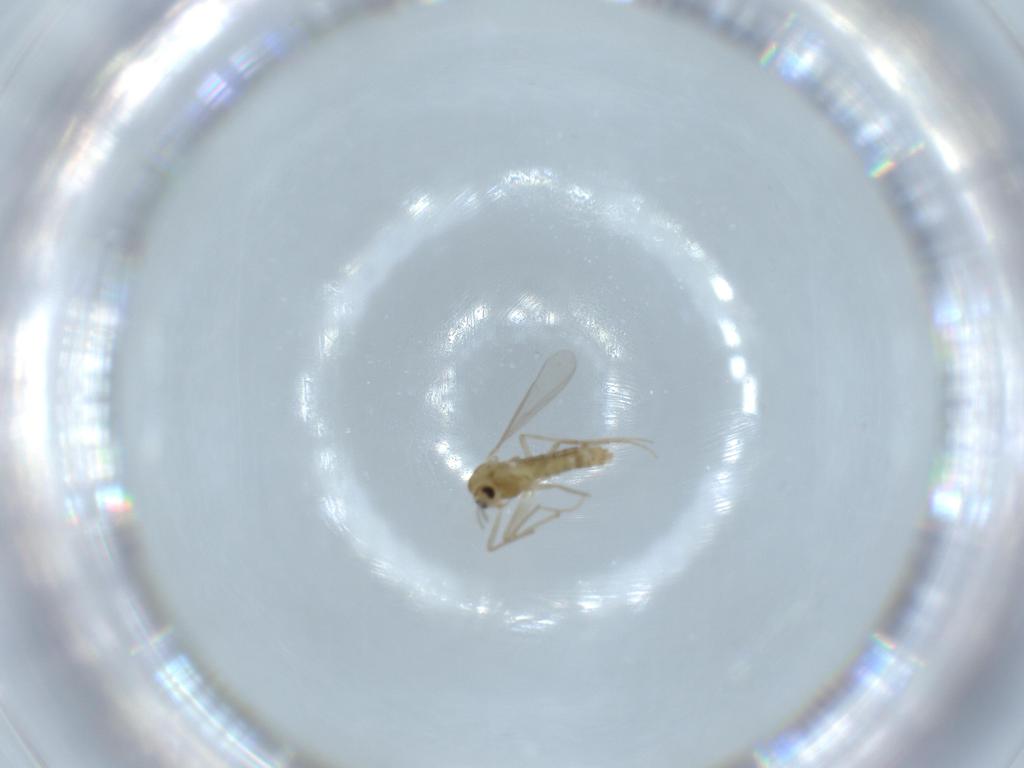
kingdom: Animalia
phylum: Arthropoda
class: Insecta
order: Diptera
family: Chironomidae
